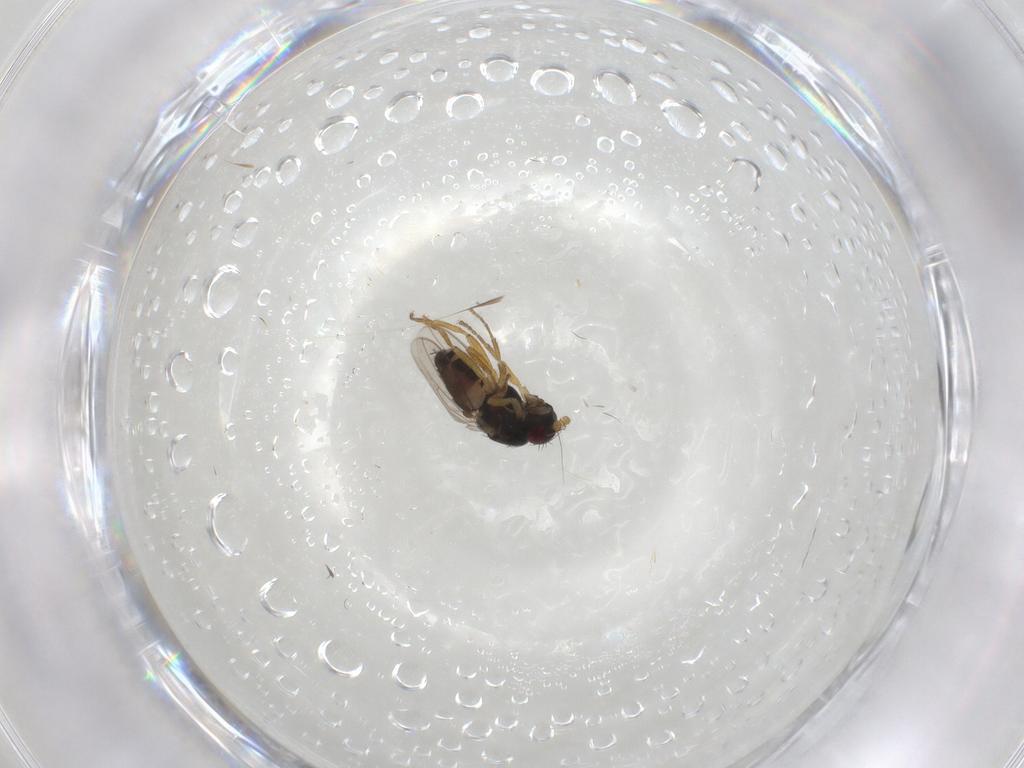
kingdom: Animalia
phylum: Arthropoda
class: Insecta
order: Diptera
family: Sphaeroceridae
